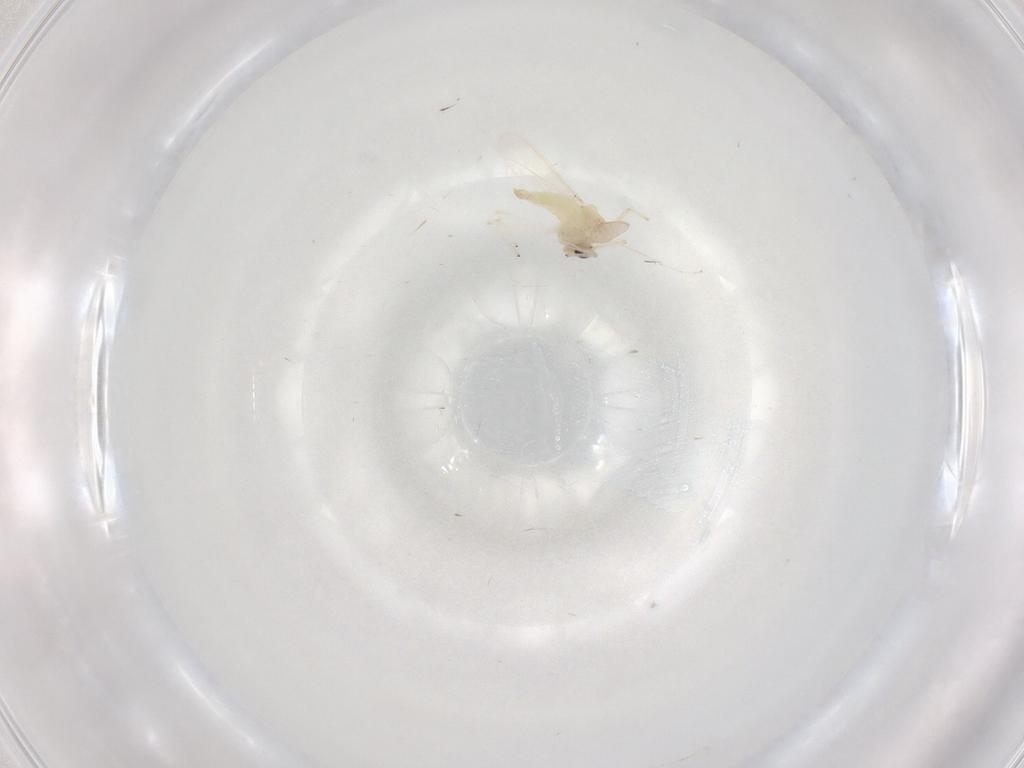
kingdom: Animalia
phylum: Arthropoda
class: Insecta
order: Diptera
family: Chironomidae
